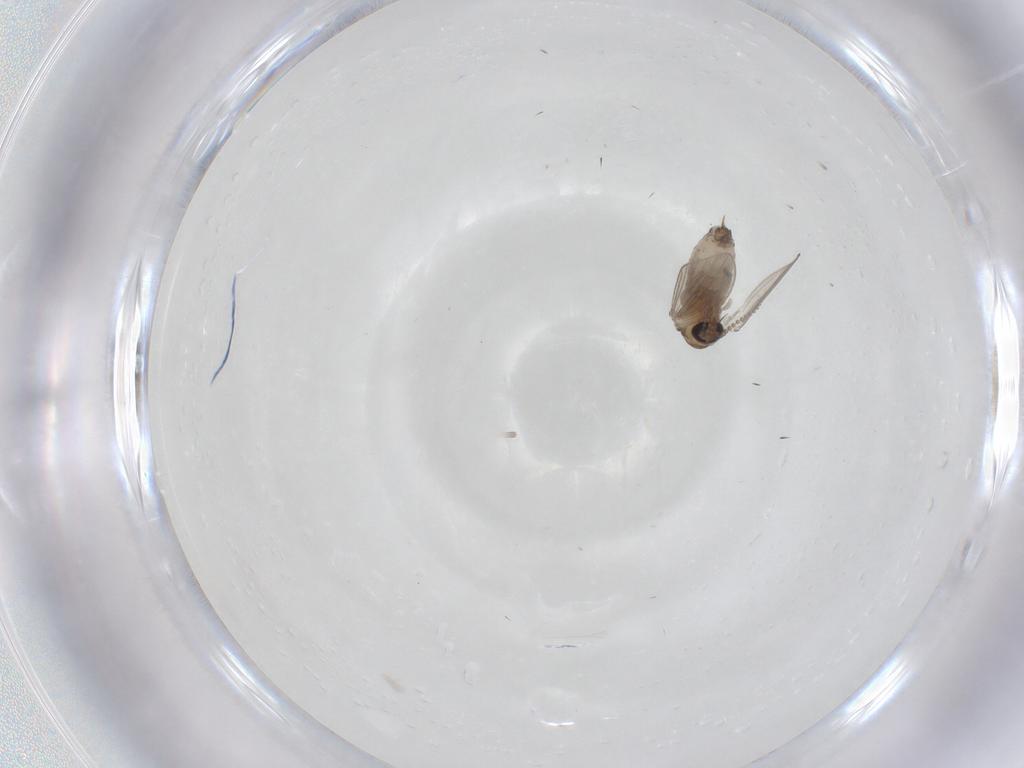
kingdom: Animalia
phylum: Arthropoda
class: Insecta
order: Diptera
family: Psychodidae
